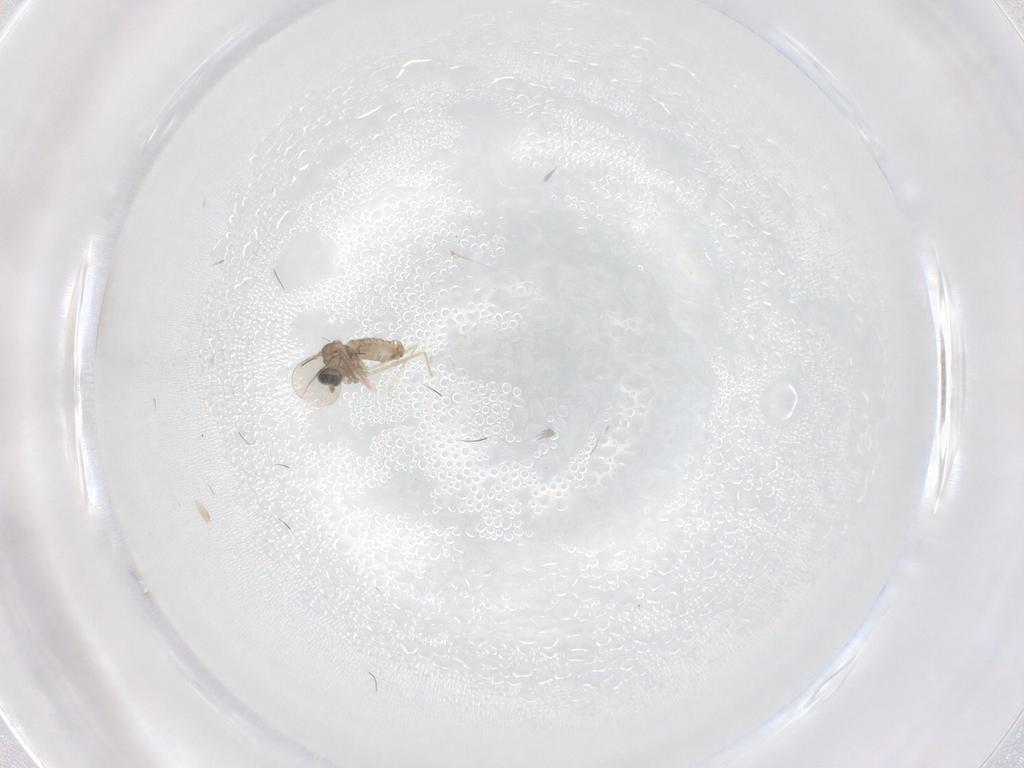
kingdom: Animalia
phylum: Arthropoda
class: Insecta
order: Diptera
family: Cecidomyiidae
